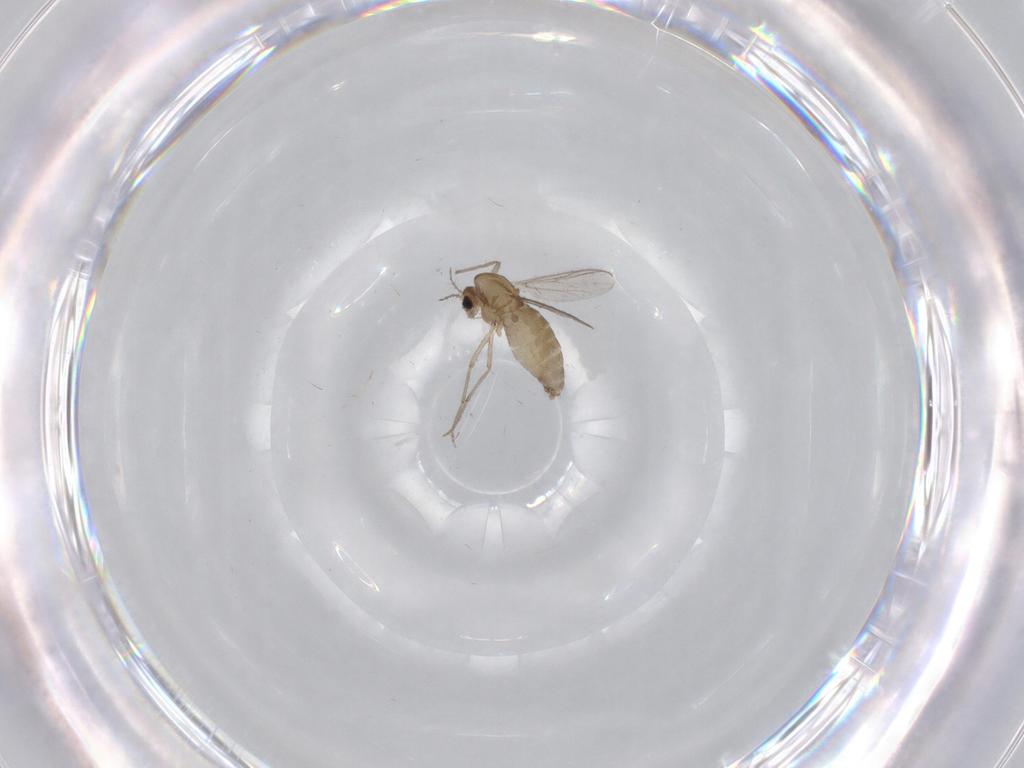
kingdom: Animalia
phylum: Arthropoda
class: Insecta
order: Diptera
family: Chironomidae
